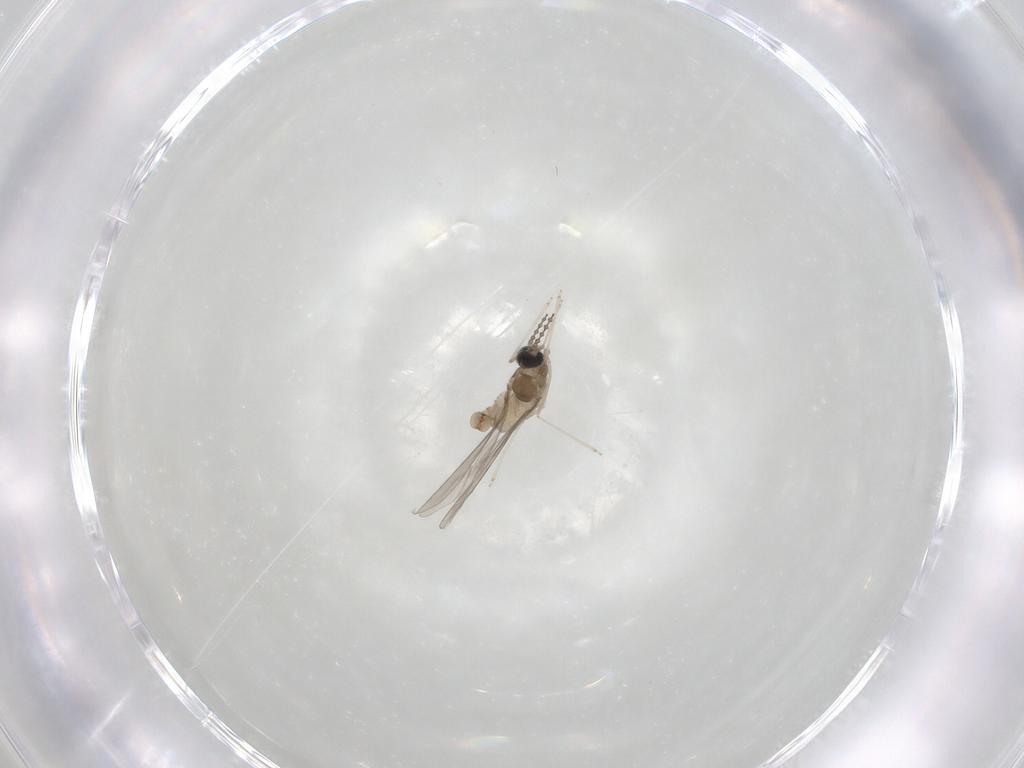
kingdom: Animalia
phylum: Arthropoda
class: Insecta
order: Diptera
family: Cecidomyiidae
